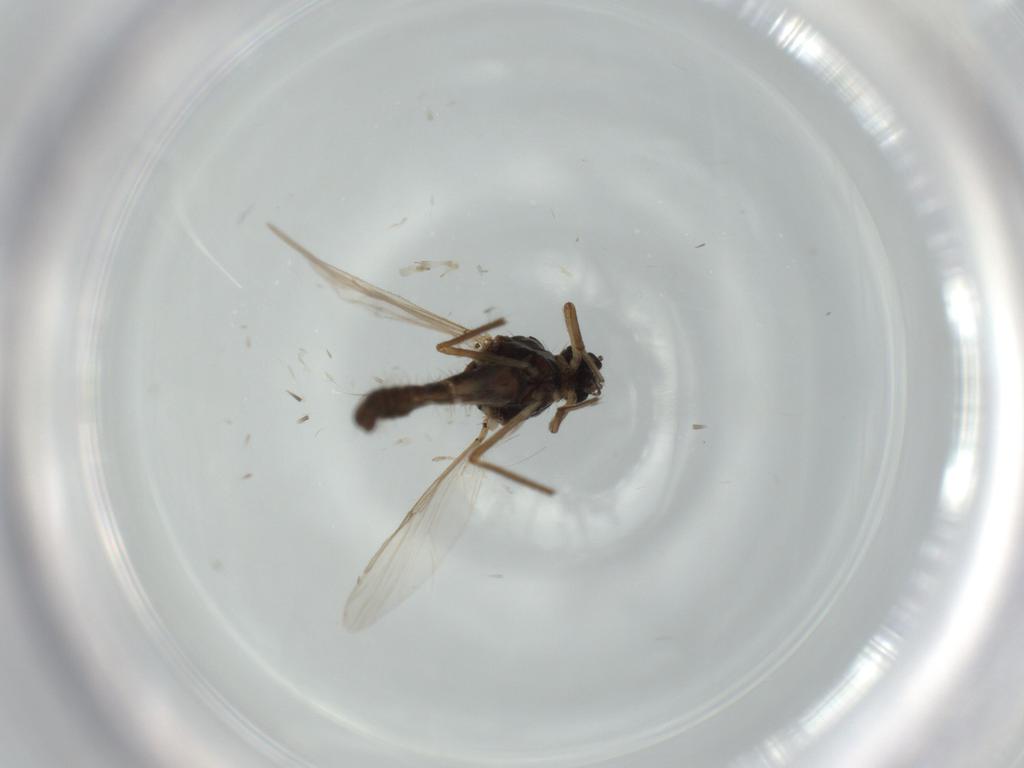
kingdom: Animalia
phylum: Arthropoda
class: Insecta
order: Diptera
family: Ceratopogonidae
